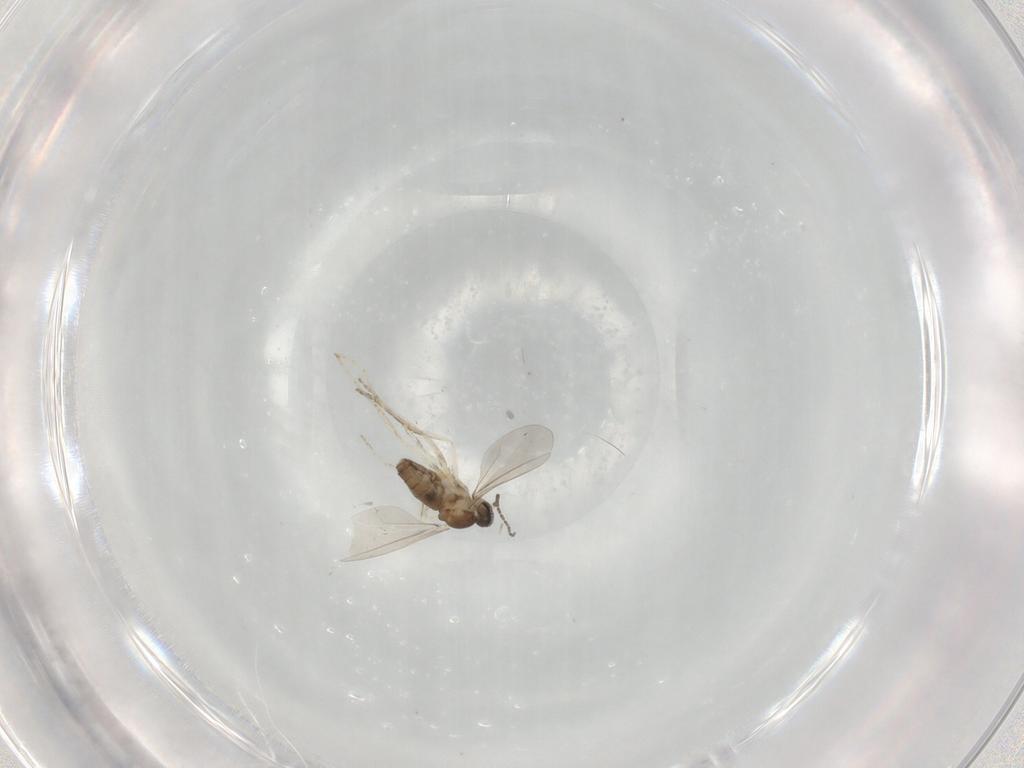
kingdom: Animalia
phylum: Arthropoda
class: Insecta
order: Diptera
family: Cecidomyiidae
